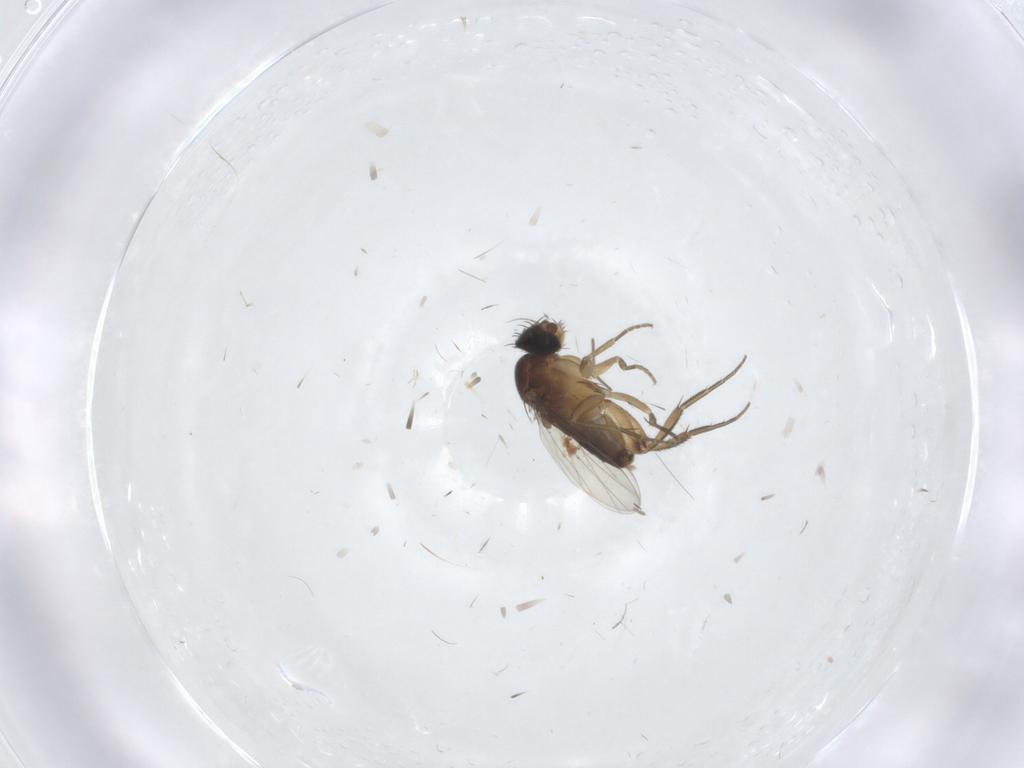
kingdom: Animalia
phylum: Arthropoda
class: Insecta
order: Diptera
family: Phoridae
